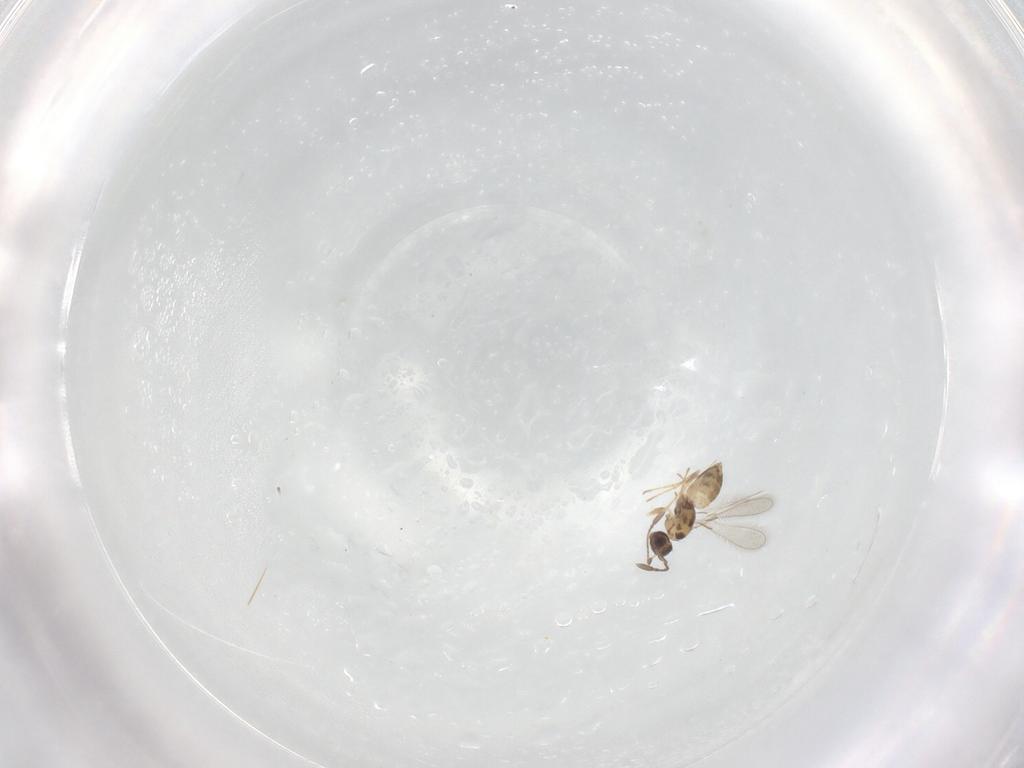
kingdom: Animalia
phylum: Arthropoda
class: Insecta
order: Hymenoptera
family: Mymaridae
